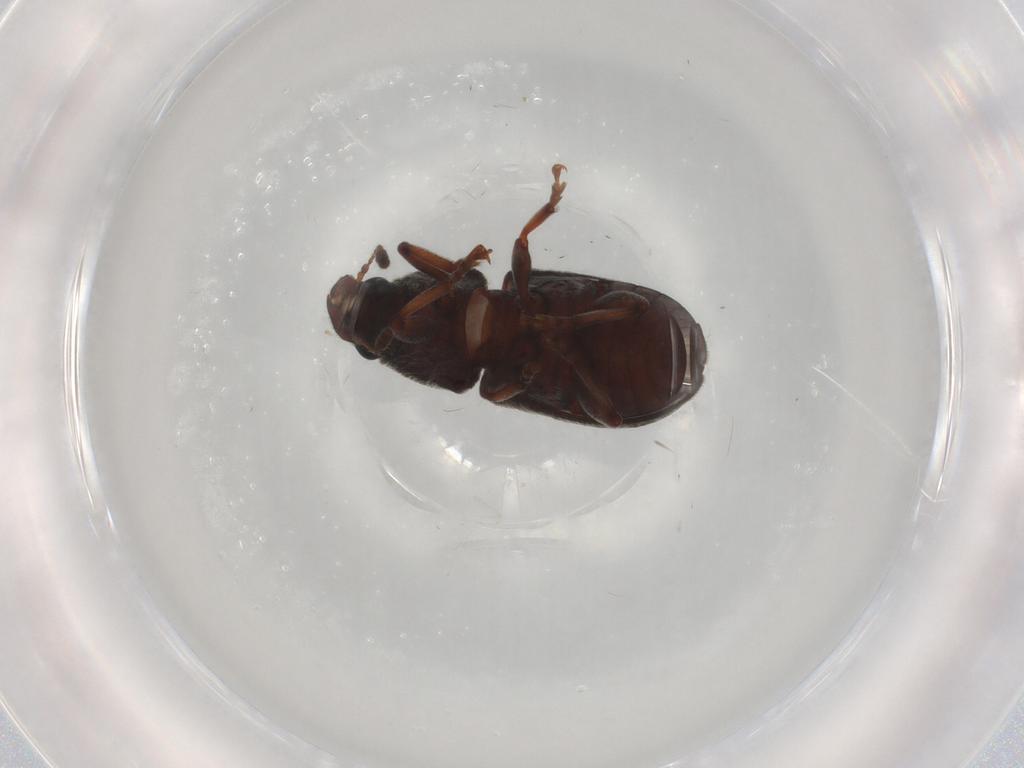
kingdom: Animalia
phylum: Arthropoda
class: Insecta
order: Coleoptera
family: Anthribidae
